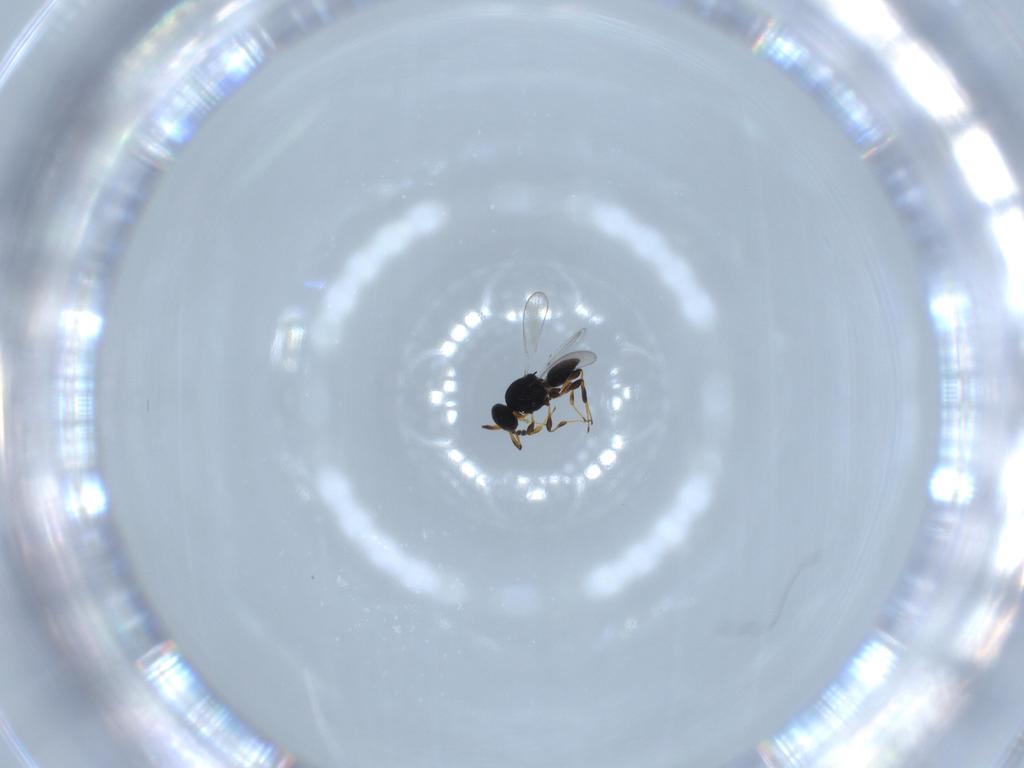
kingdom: Animalia
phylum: Arthropoda
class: Insecta
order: Hymenoptera
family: Platygastridae
